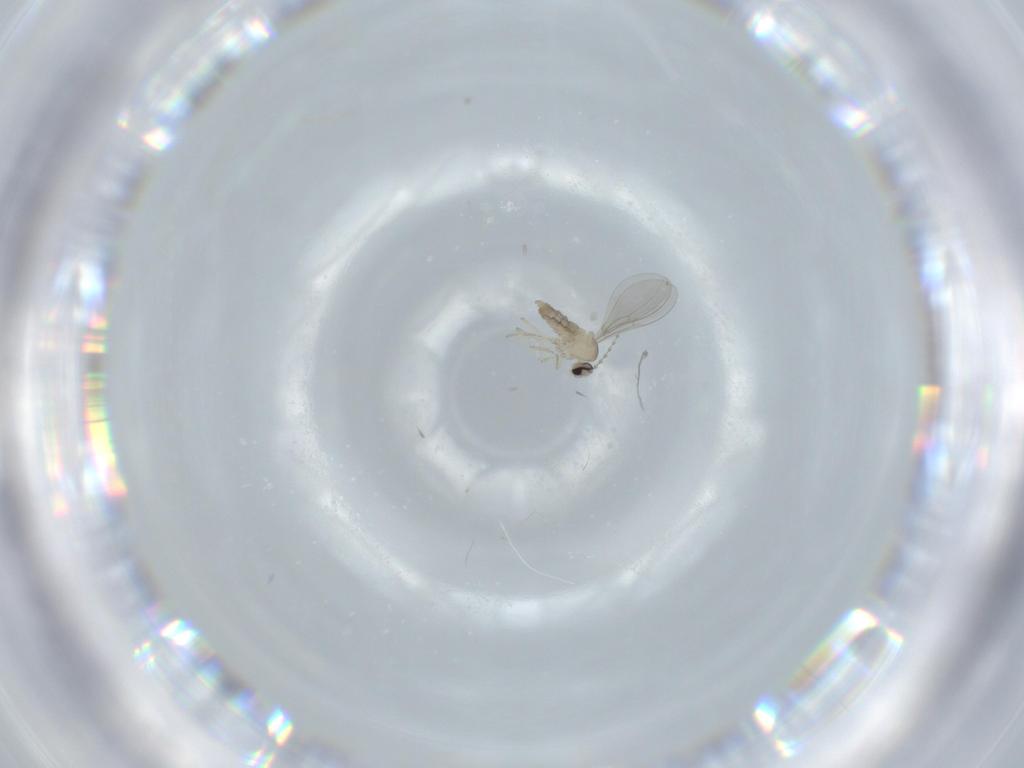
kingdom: Animalia
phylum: Arthropoda
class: Insecta
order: Diptera
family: Cecidomyiidae
